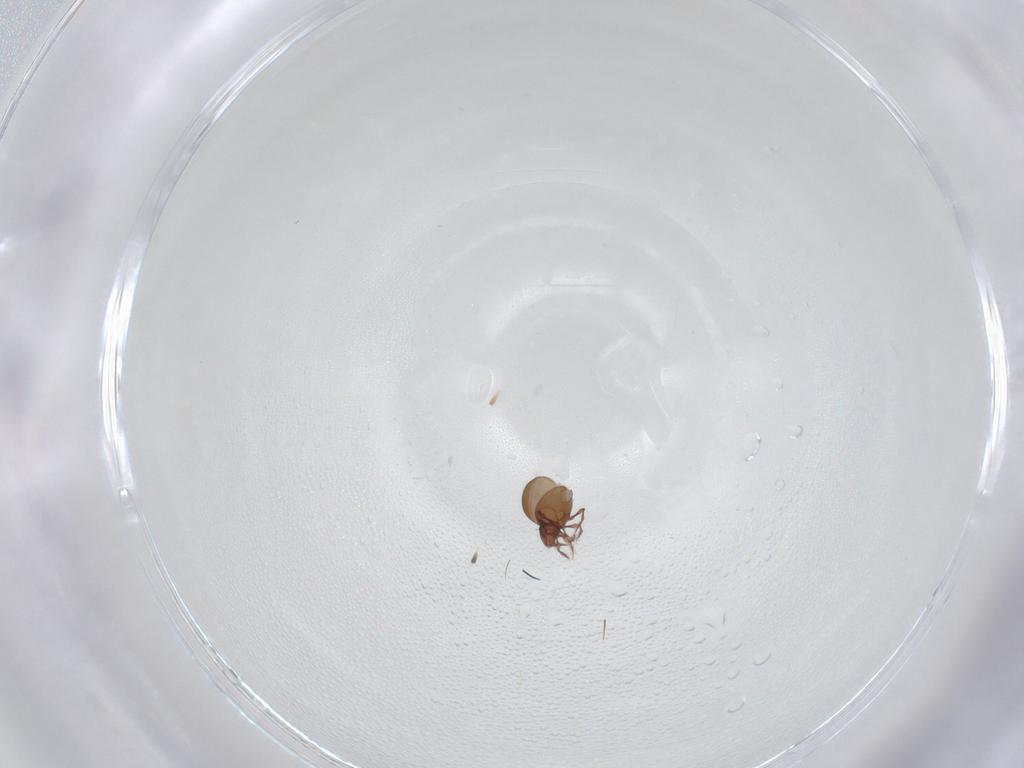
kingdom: Animalia
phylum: Arthropoda
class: Arachnida
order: Sarcoptiformes
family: Oppiidae
